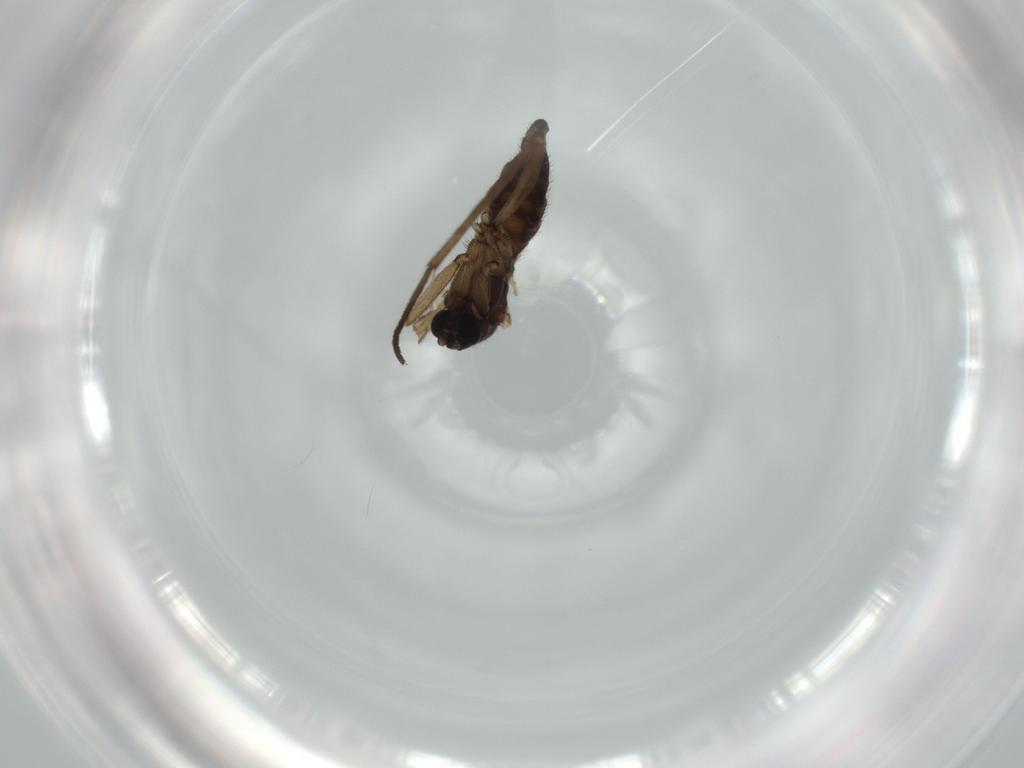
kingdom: Animalia
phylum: Arthropoda
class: Insecta
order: Diptera
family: Sciaridae
